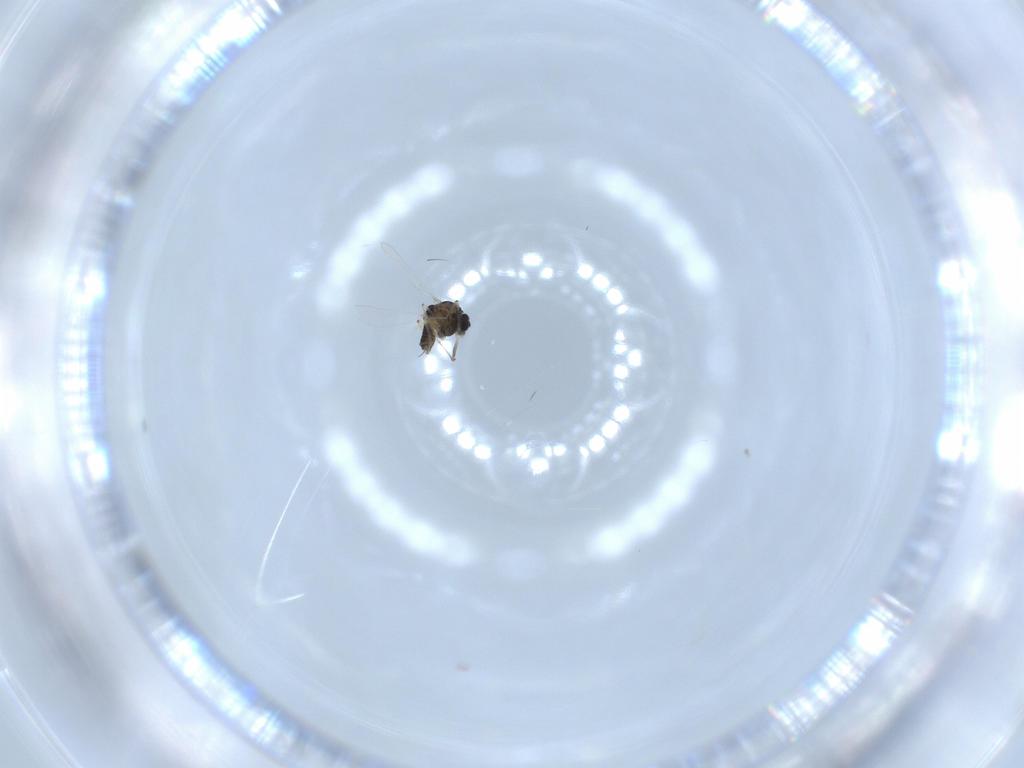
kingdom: Animalia
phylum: Arthropoda
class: Insecta
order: Diptera
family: Chironomidae
